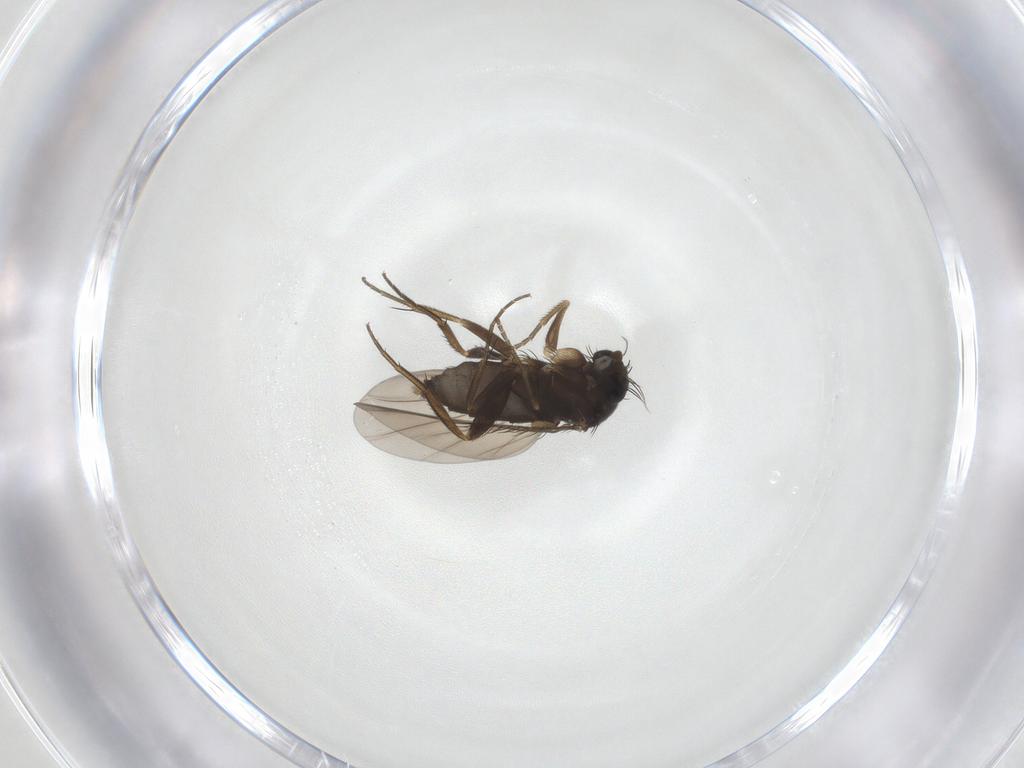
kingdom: Animalia
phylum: Arthropoda
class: Insecta
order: Diptera
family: Phoridae
